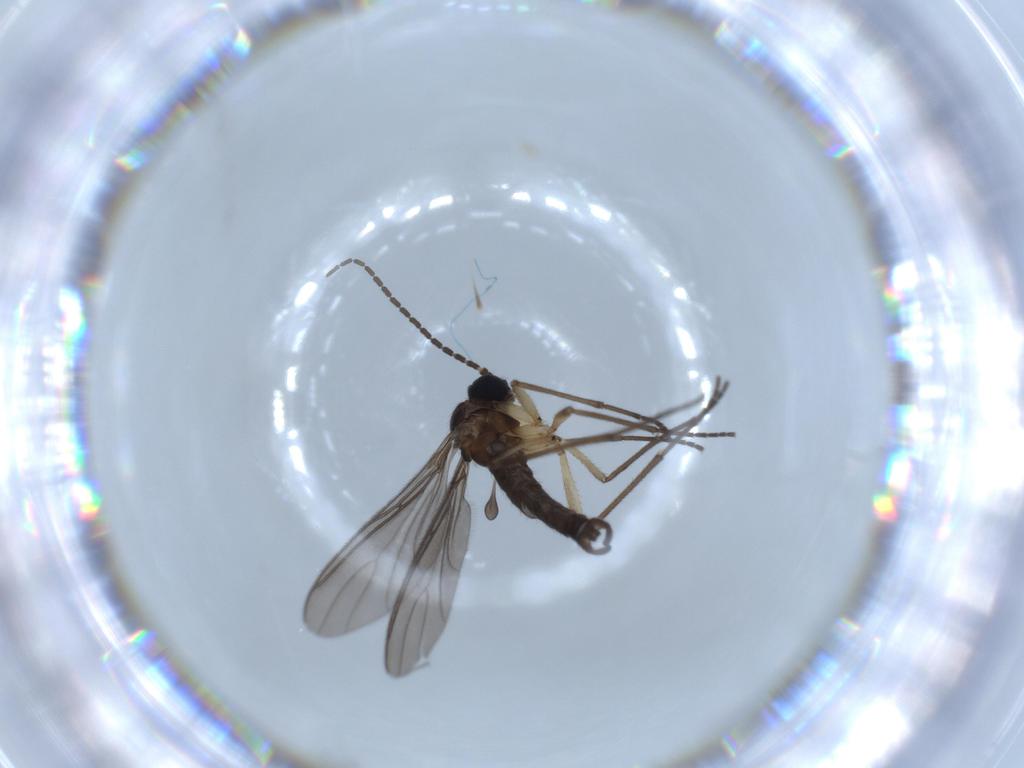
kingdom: Animalia
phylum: Arthropoda
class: Insecta
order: Diptera
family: Sciaridae
